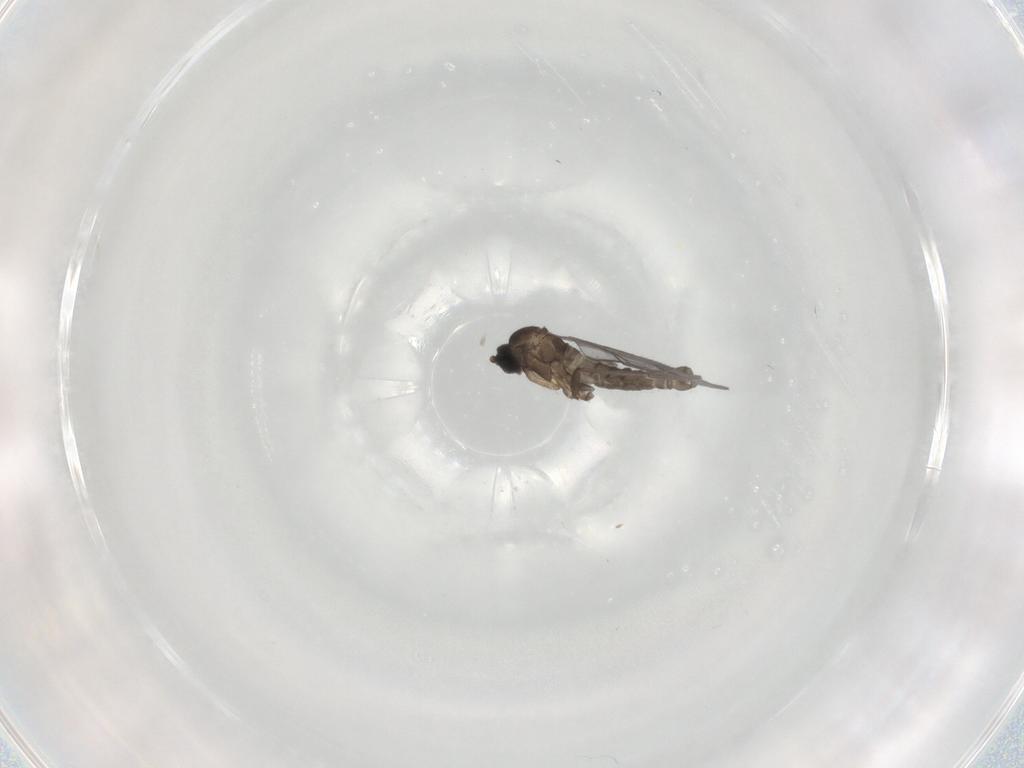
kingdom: Animalia
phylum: Arthropoda
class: Insecta
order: Diptera
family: Sciaridae
